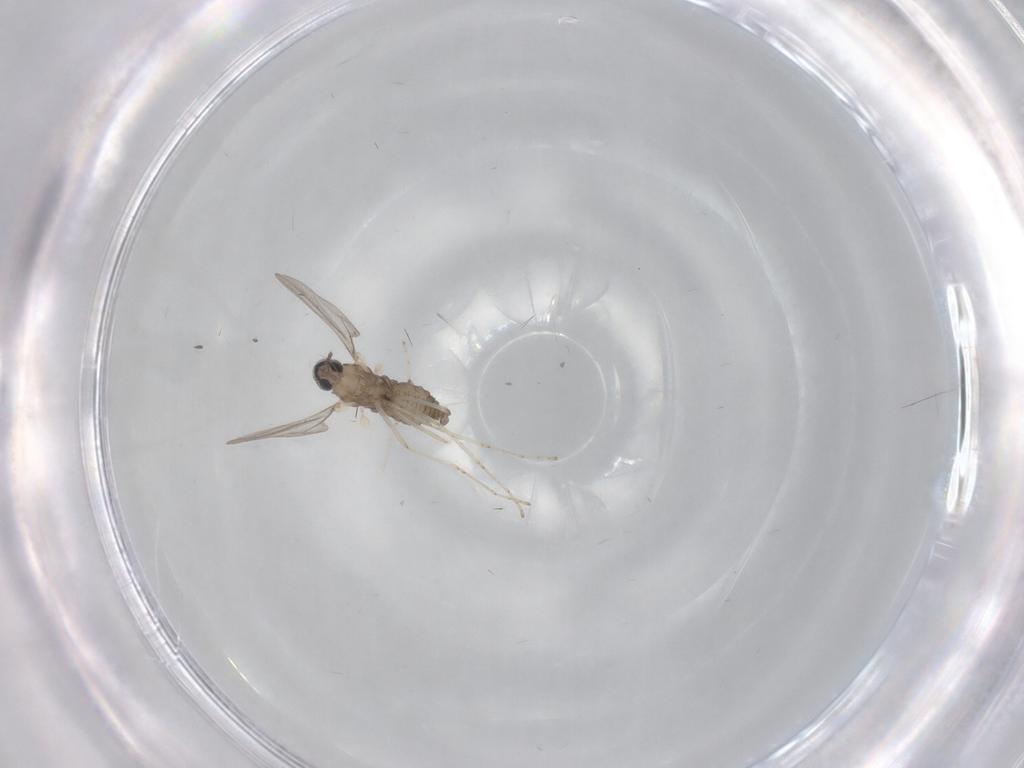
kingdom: Animalia
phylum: Arthropoda
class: Insecta
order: Diptera
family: Cecidomyiidae
